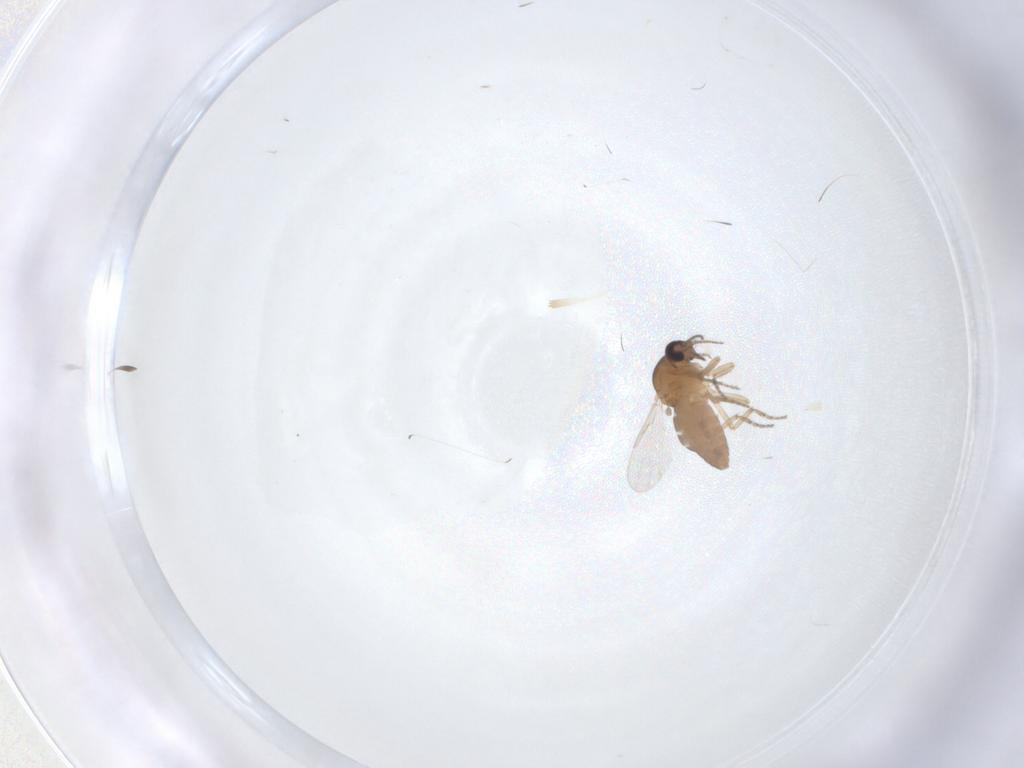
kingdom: Animalia
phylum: Arthropoda
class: Insecta
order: Diptera
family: Ceratopogonidae
